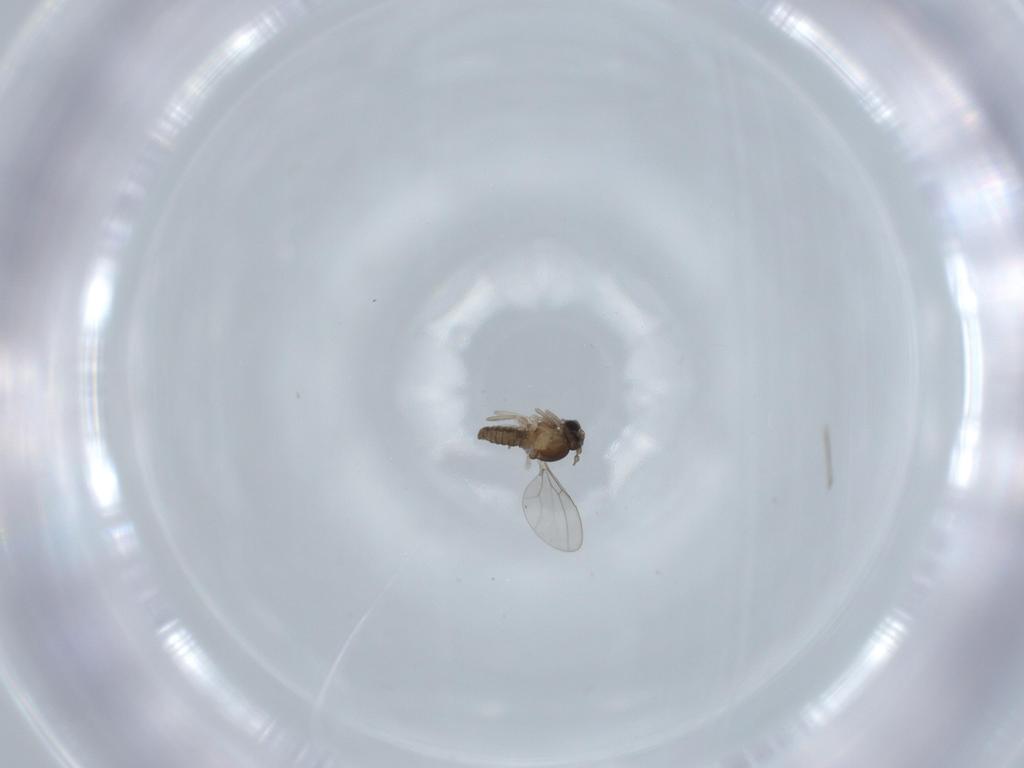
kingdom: Animalia
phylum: Arthropoda
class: Insecta
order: Diptera
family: Cecidomyiidae
